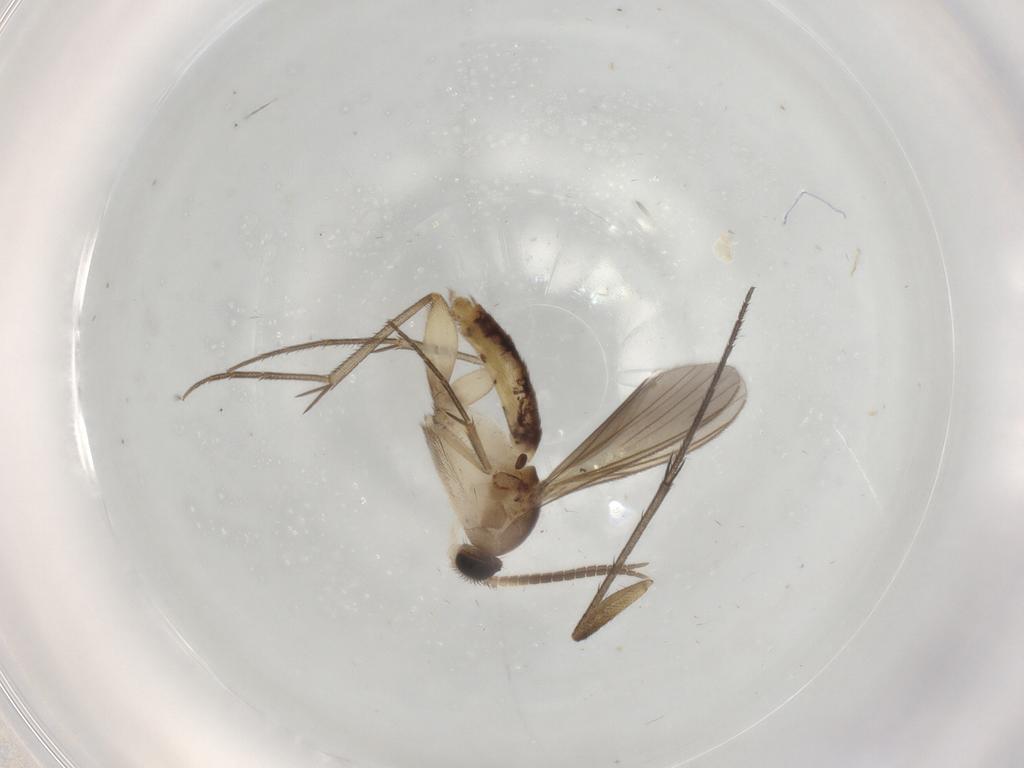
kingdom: Animalia
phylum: Arthropoda
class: Insecta
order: Diptera
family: Mycetophilidae
